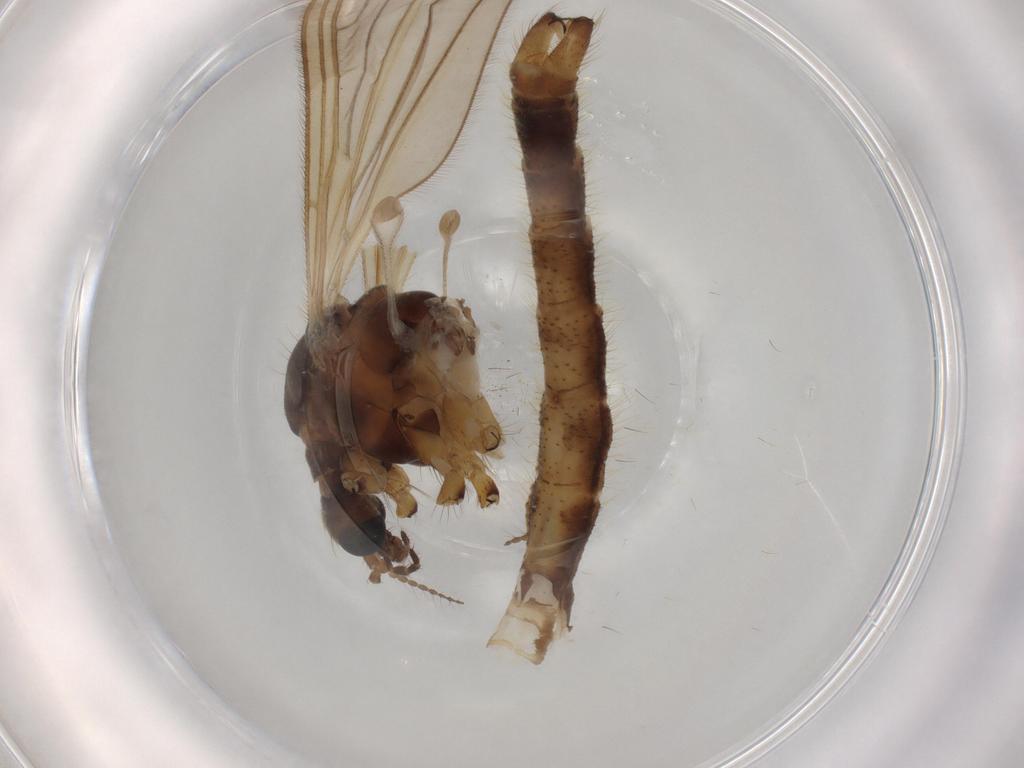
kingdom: Animalia
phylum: Arthropoda
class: Insecta
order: Diptera
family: Limoniidae
